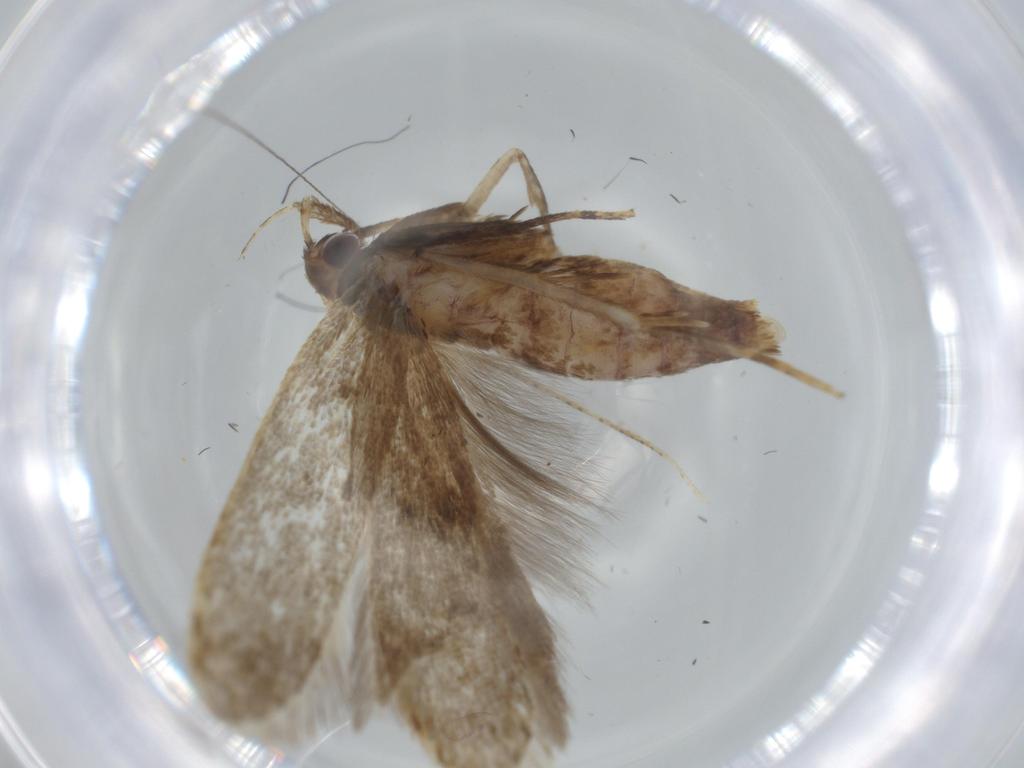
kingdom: Animalia
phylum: Arthropoda
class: Insecta
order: Lepidoptera
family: Autostichidae
